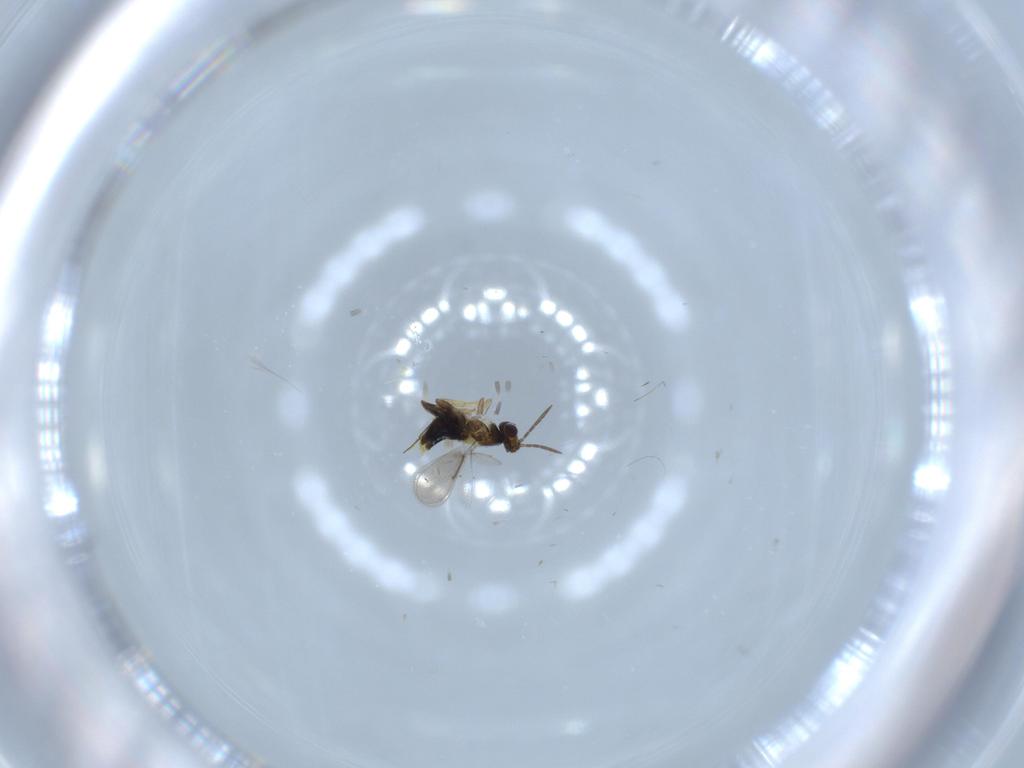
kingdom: Animalia
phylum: Arthropoda
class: Insecta
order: Hymenoptera
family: Aphelinidae
